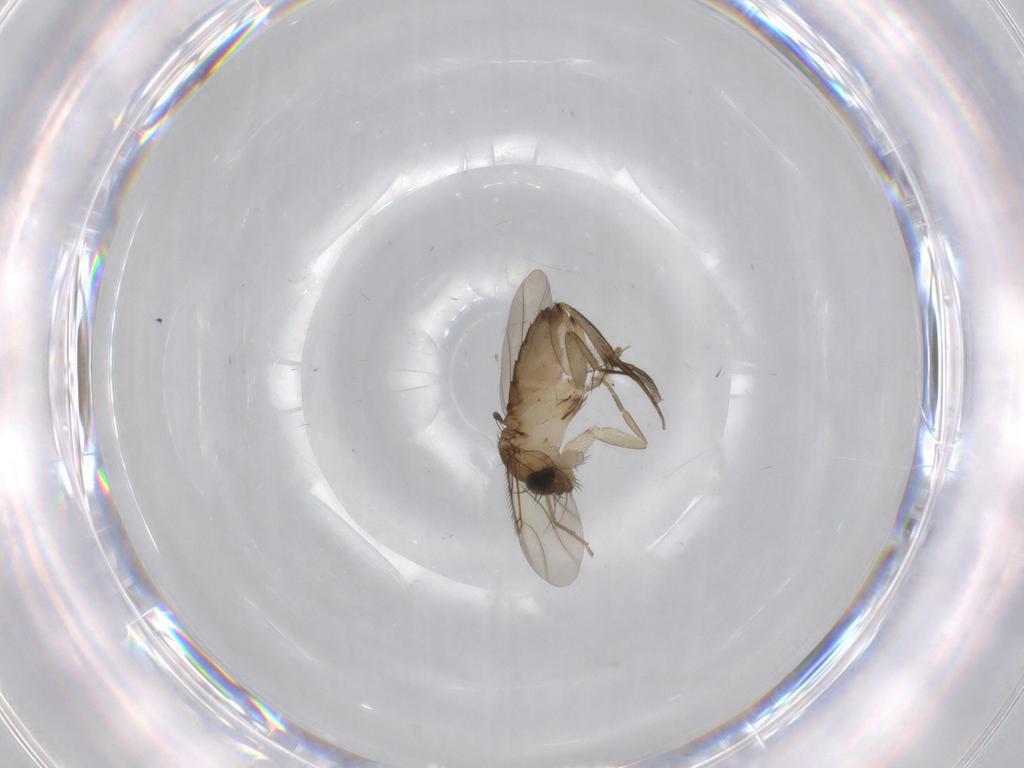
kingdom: Animalia
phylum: Arthropoda
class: Insecta
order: Diptera
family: Phoridae
